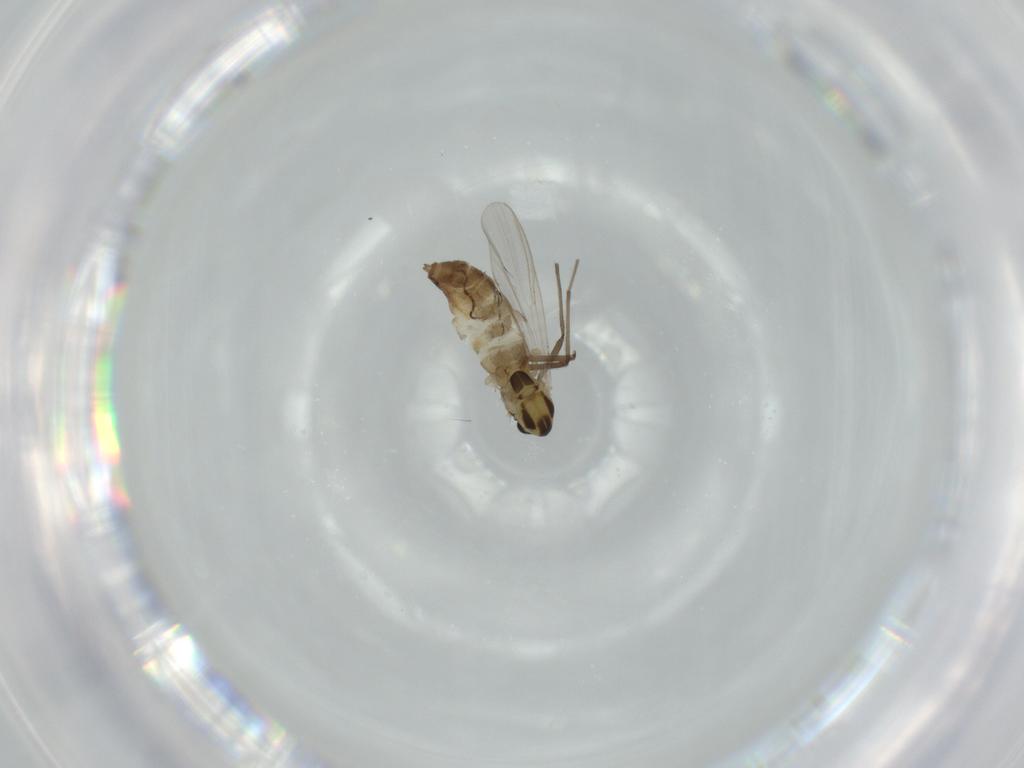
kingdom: Animalia
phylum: Arthropoda
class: Insecta
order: Diptera
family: Chironomidae
